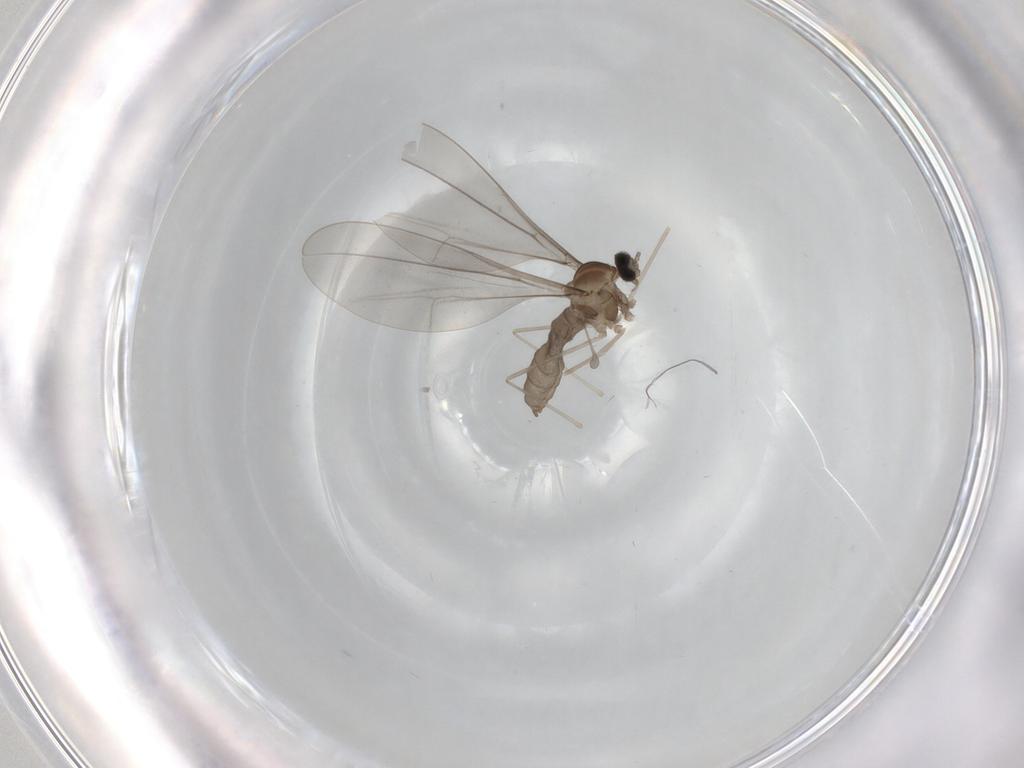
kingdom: Animalia
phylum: Arthropoda
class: Insecta
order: Diptera
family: Cecidomyiidae
